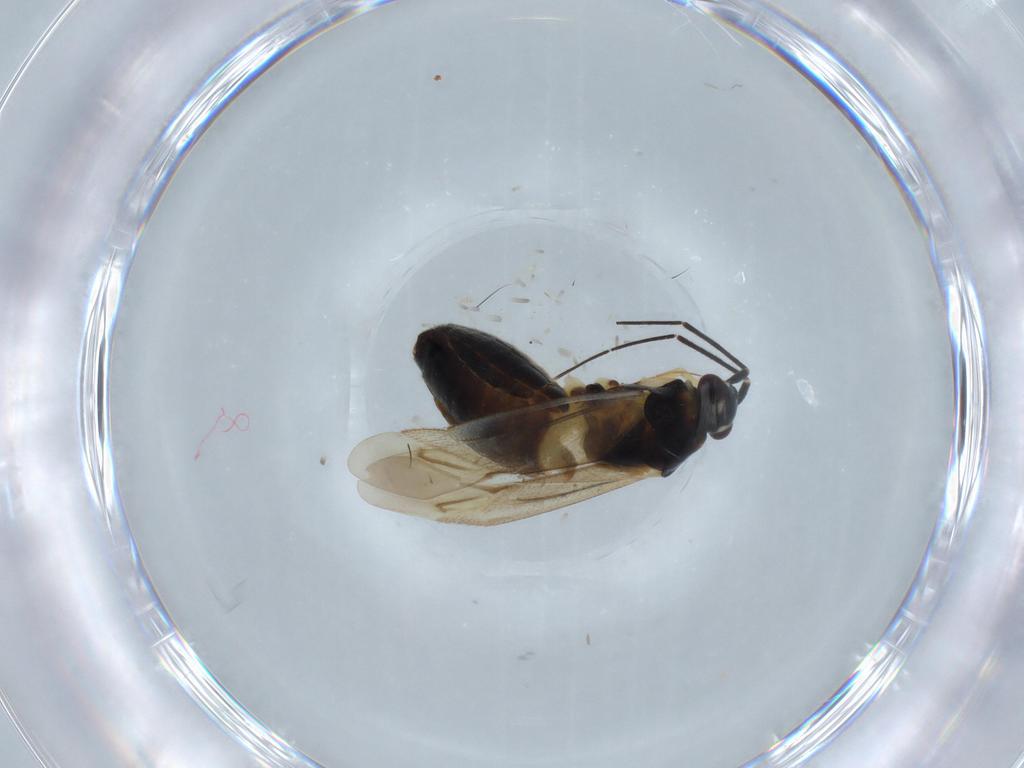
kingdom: Animalia
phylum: Arthropoda
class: Insecta
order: Hemiptera
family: Miridae
